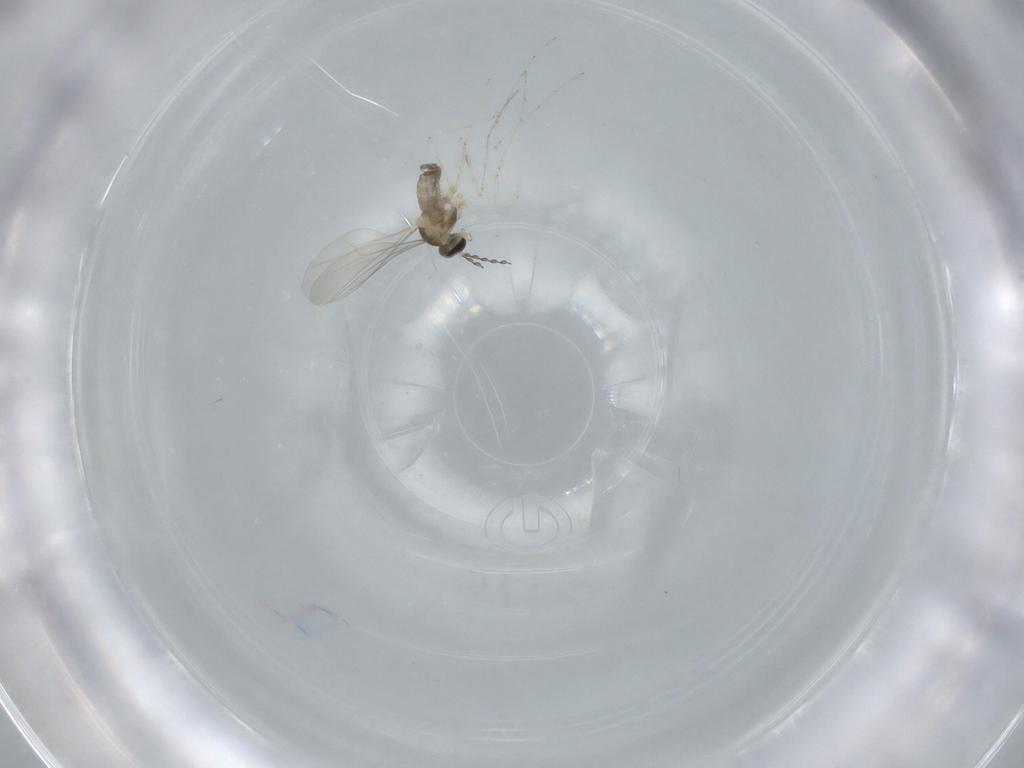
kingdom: Animalia
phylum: Arthropoda
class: Insecta
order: Diptera
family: Cecidomyiidae
